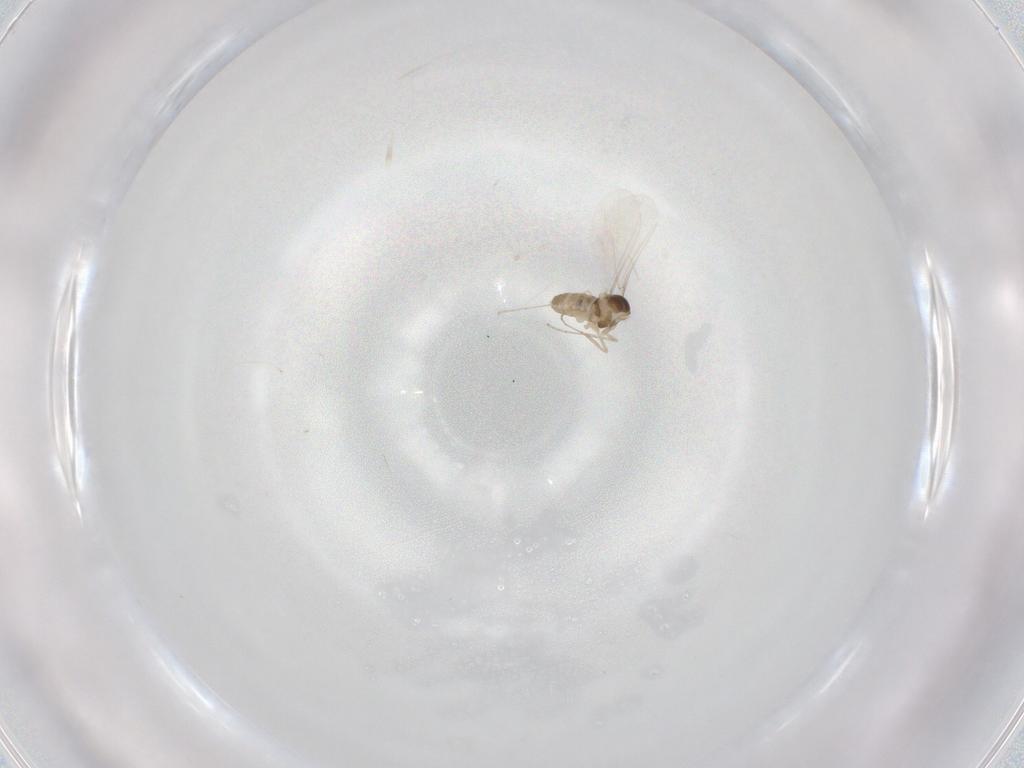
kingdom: Animalia
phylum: Arthropoda
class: Insecta
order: Diptera
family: Cecidomyiidae
